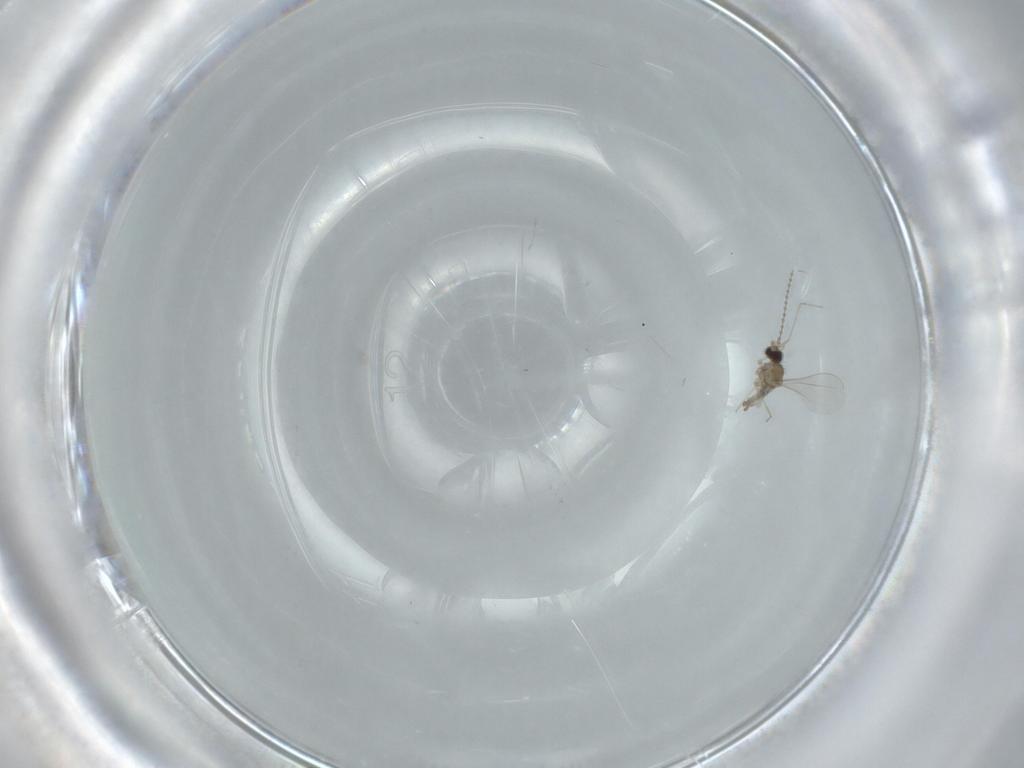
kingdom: Animalia
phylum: Arthropoda
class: Insecta
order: Diptera
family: Cecidomyiidae
